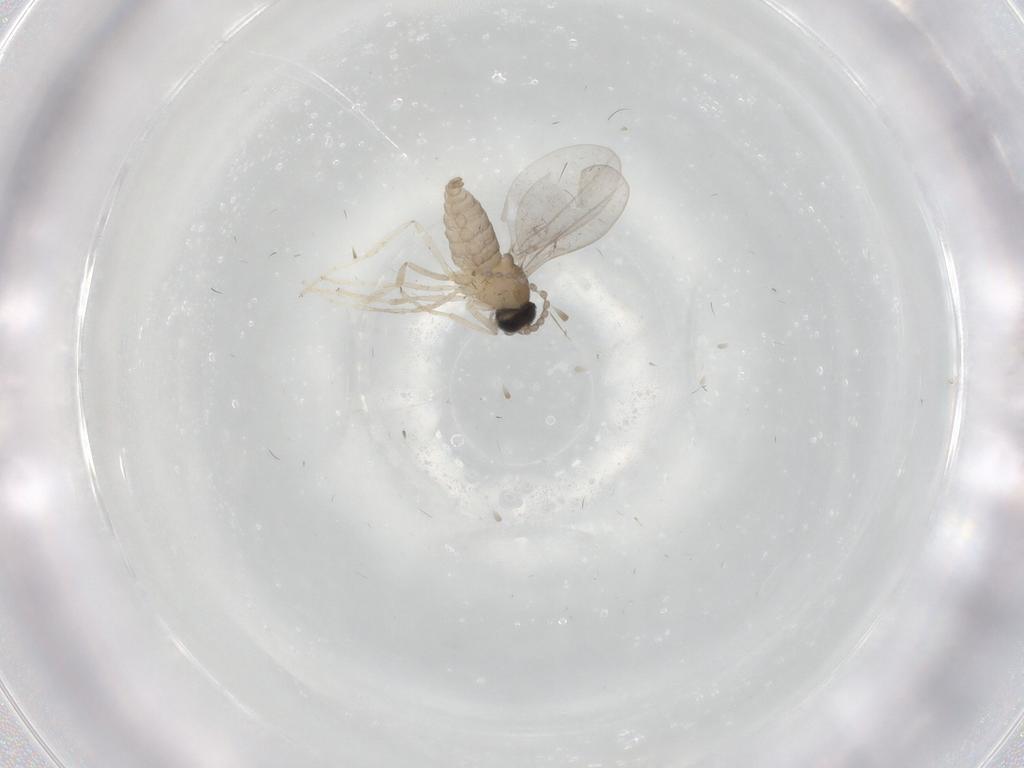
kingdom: Animalia
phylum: Arthropoda
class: Insecta
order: Diptera
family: Cecidomyiidae
